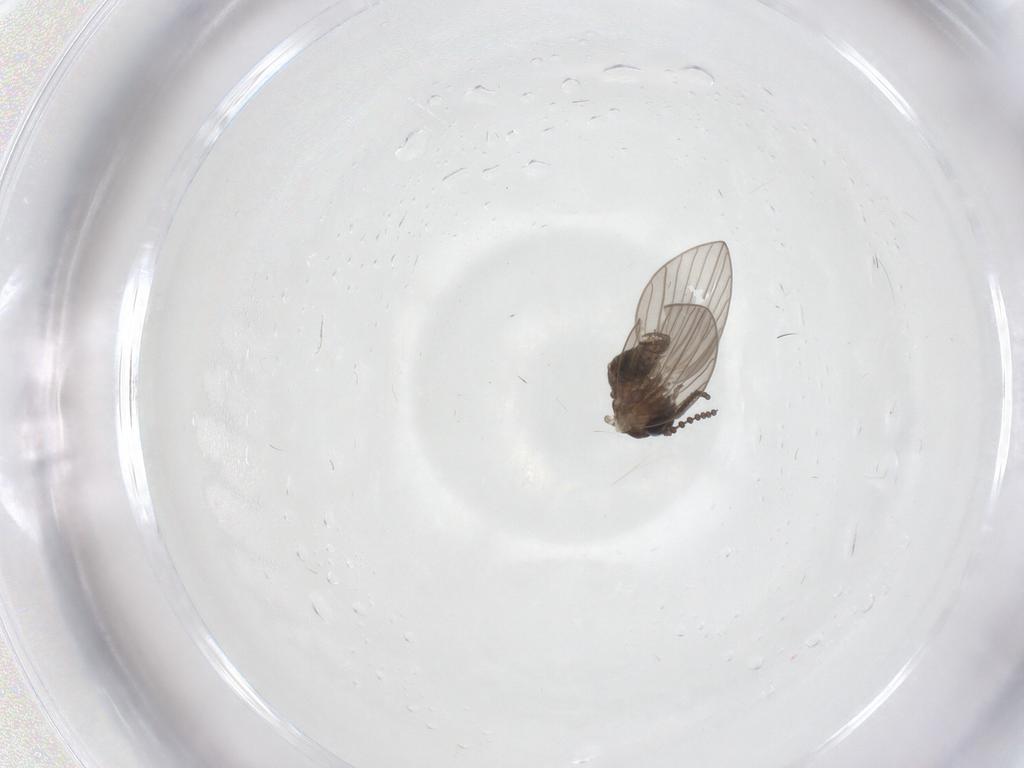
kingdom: Animalia
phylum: Arthropoda
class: Insecta
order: Diptera
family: Psychodidae
